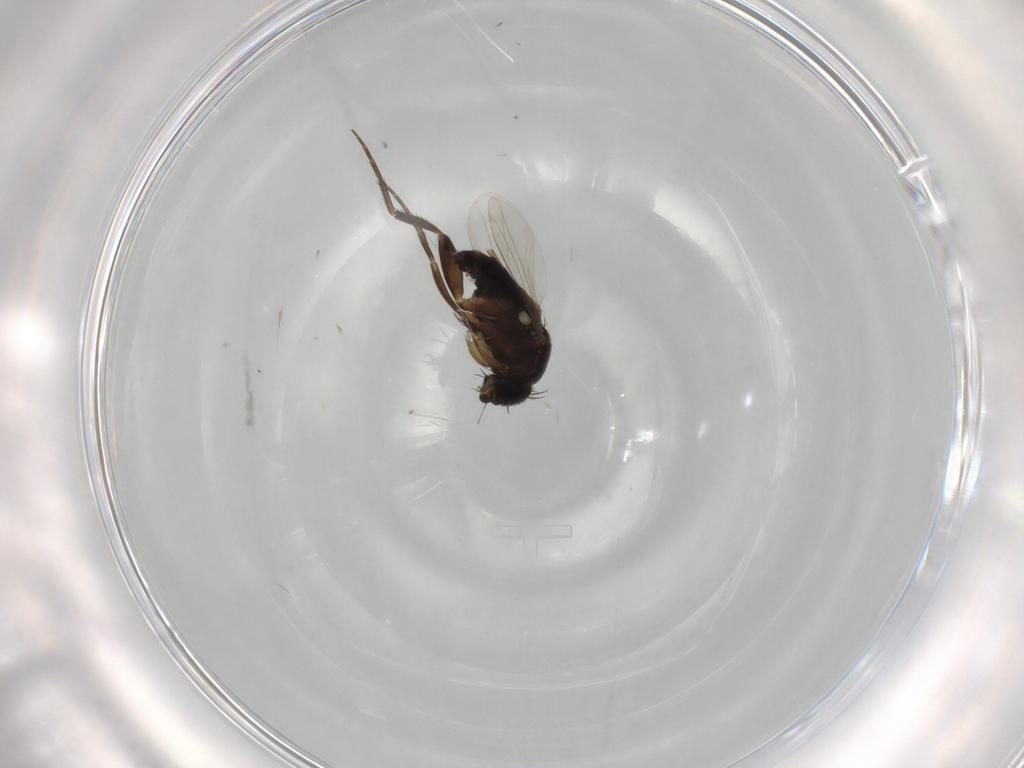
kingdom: Animalia
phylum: Arthropoda
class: Insecta
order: Diptera
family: Phoridae
